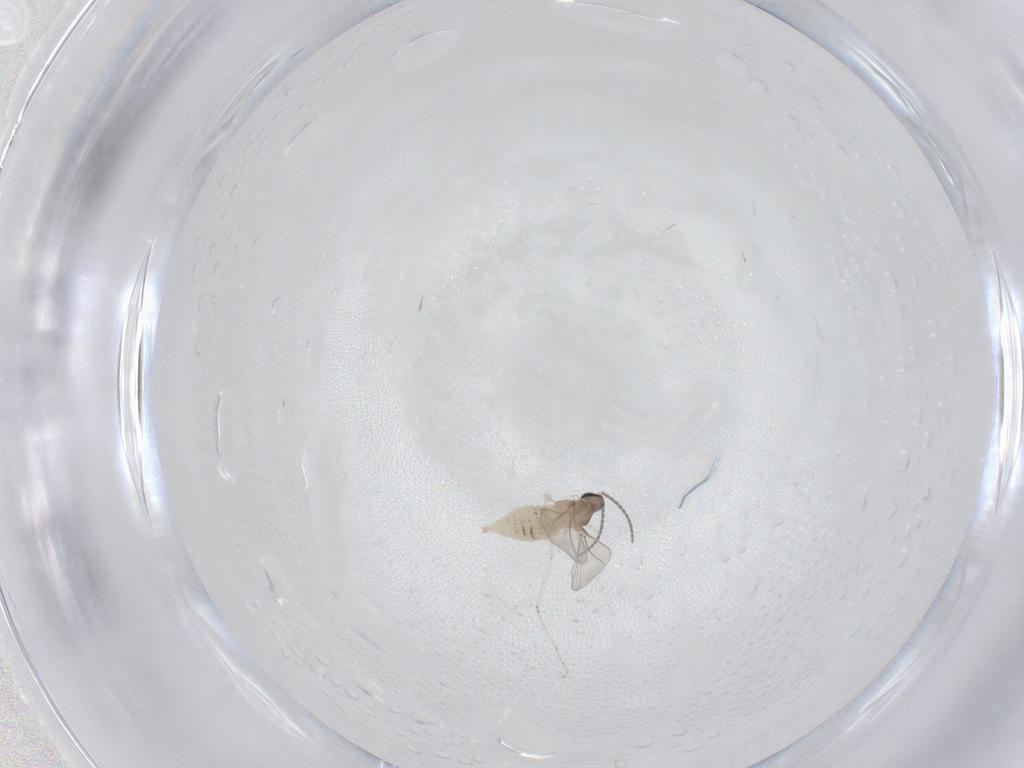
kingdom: Animalia
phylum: Arthropoda
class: Insecta
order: Diptera
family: Cecidomyiidae
